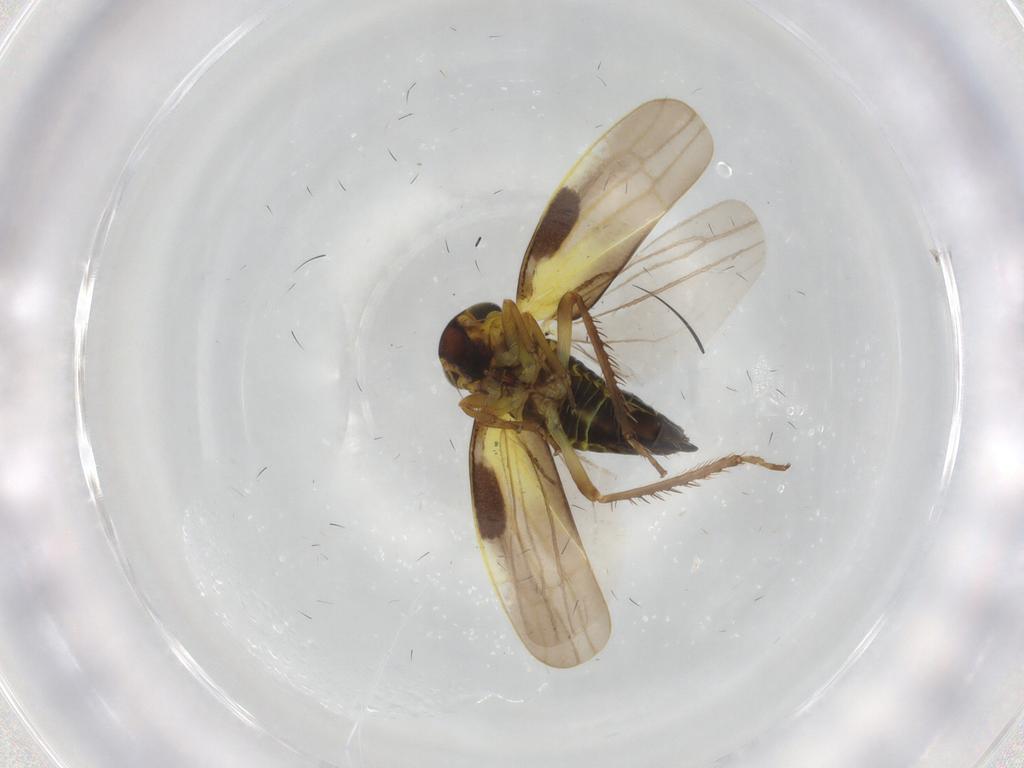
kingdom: Animalia
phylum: Arthropoda
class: Insecta
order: Hemiptera
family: Cicadellidae
